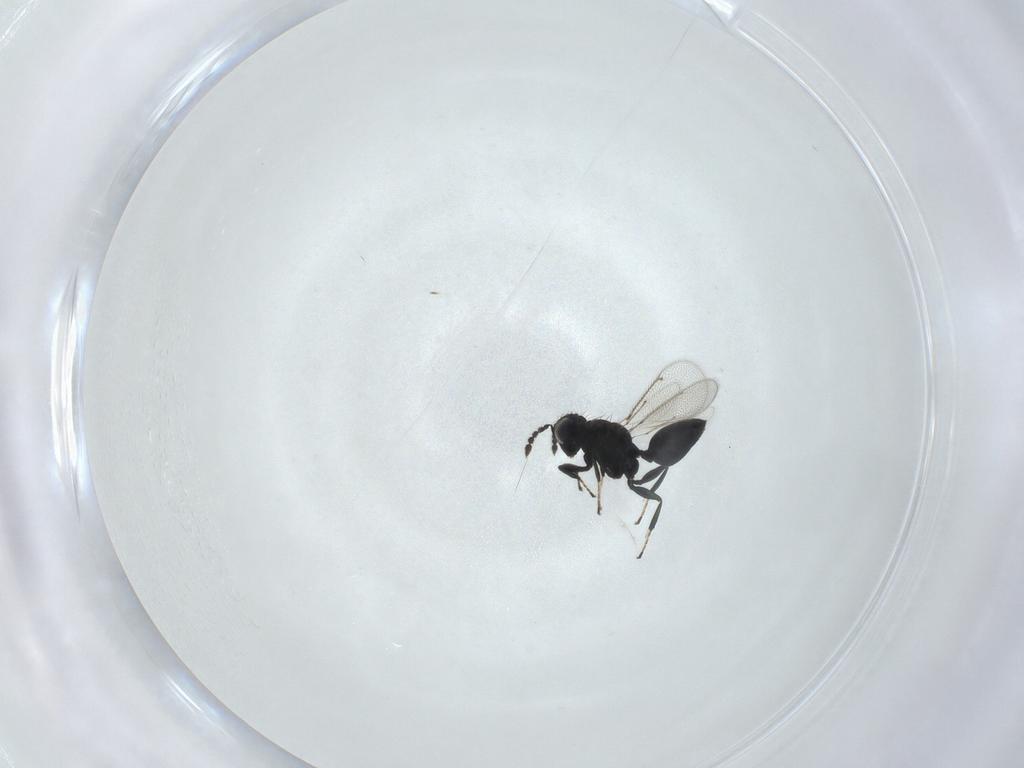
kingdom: Animalia
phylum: Arthropoda
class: Insecta
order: Hymenoptera
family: Eulophidae
